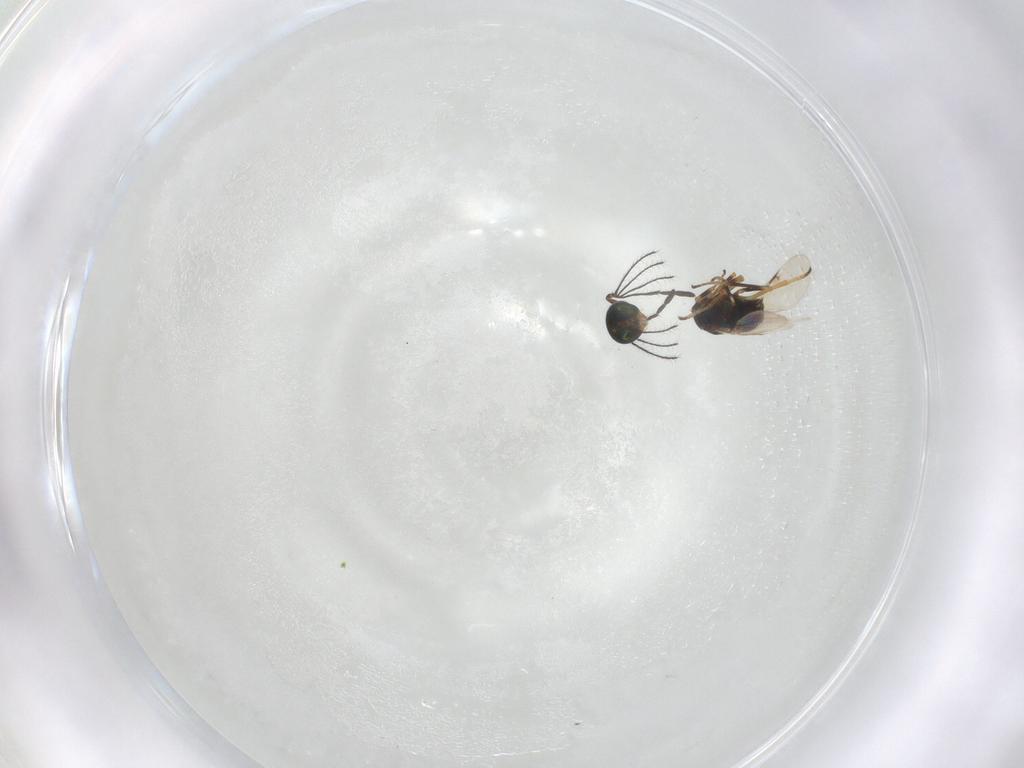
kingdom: Animalia
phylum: Arthropoda
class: Insecta
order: Hymenoptera
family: Encyrtidae
